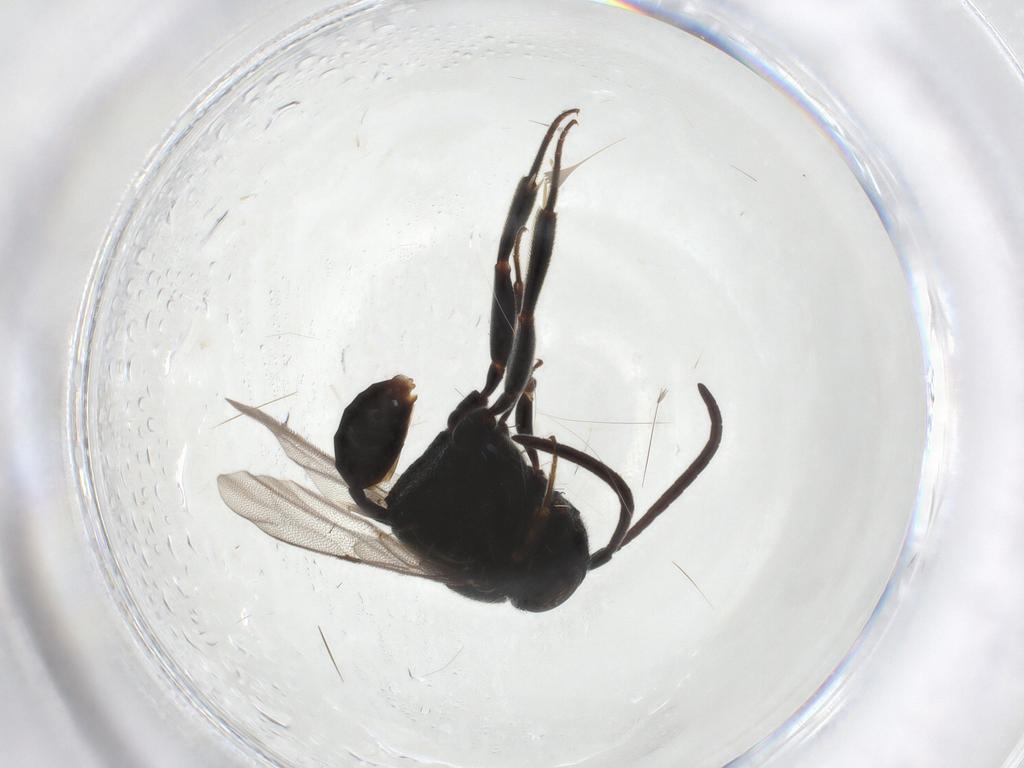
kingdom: Animalia
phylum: Arthropoda
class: Insecta
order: Hymenoptera
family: Evaniidae
